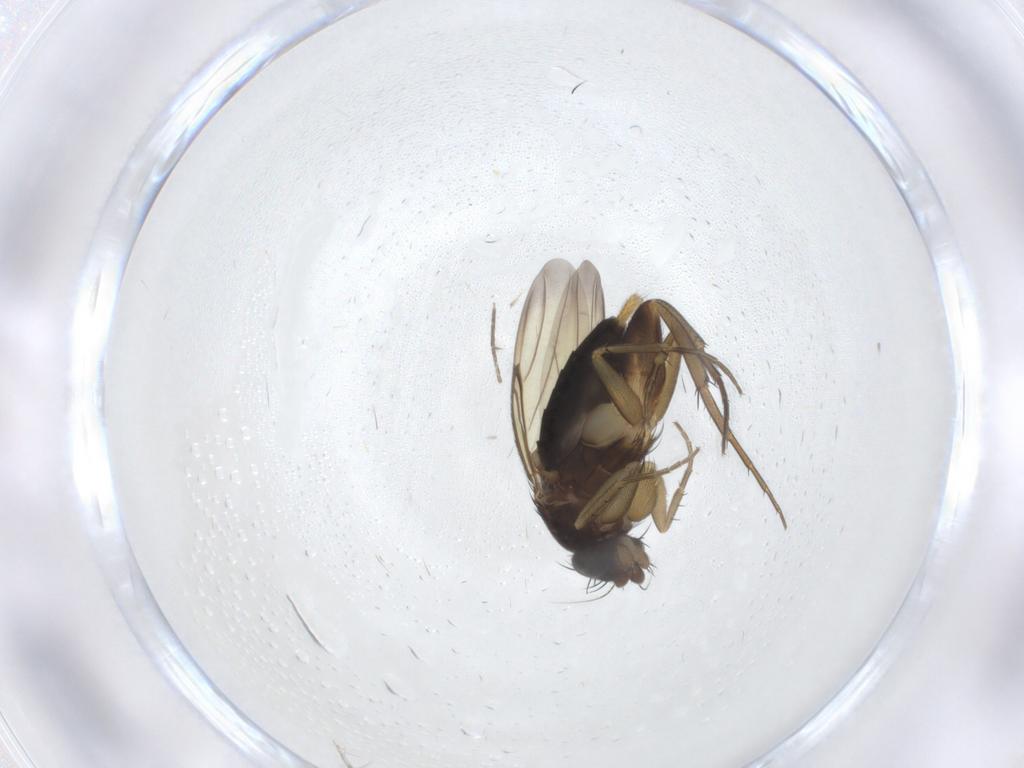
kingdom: Animalia
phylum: Arthropoda
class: Insecta
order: Diptera
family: Phoridae
